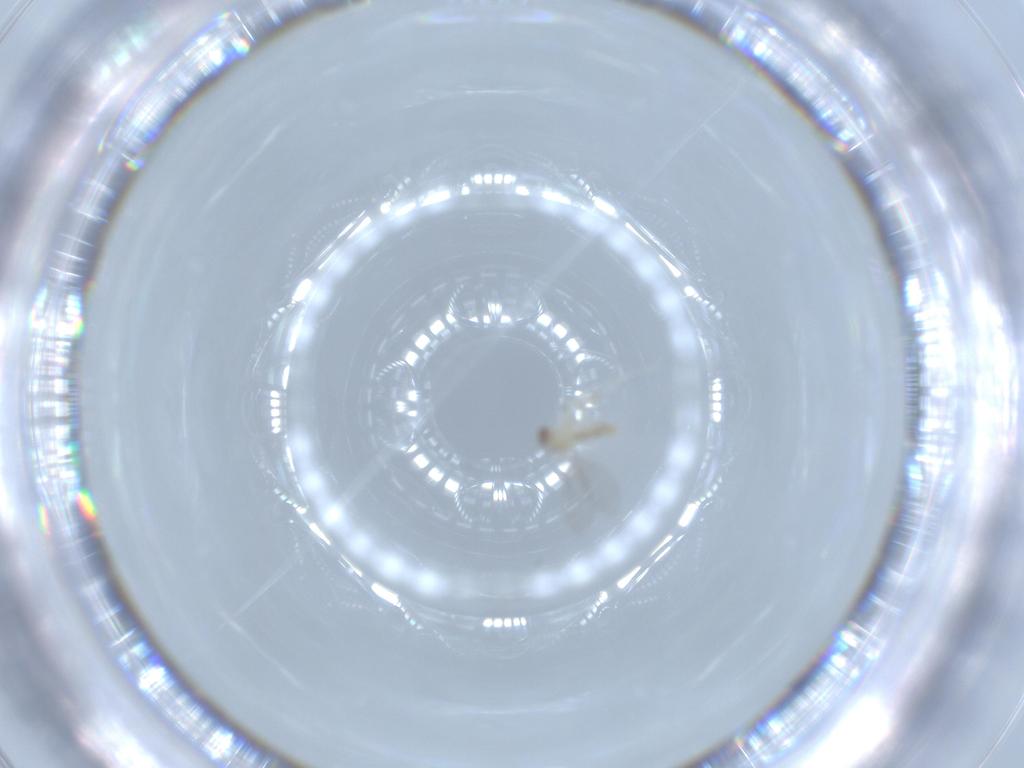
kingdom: Animalia
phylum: Arthropoda
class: Insecta
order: Diptera
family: Cecidomyiidae
